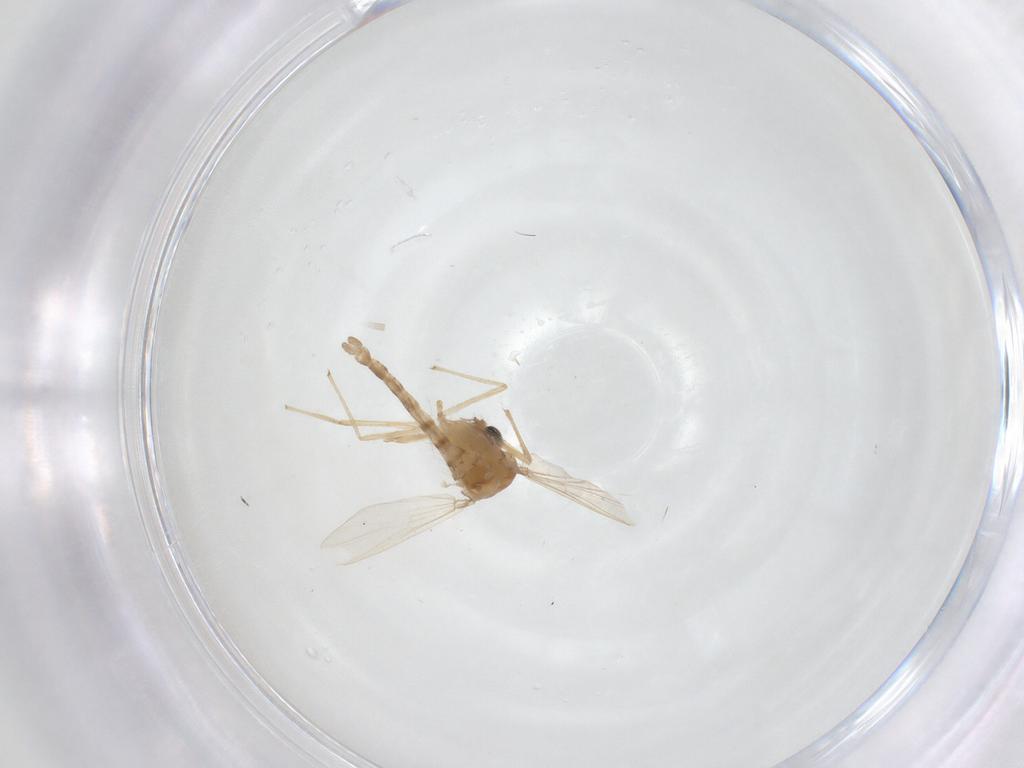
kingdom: Animalia
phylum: Arthropoda
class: Insecta
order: Diptera
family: Chironomidae
